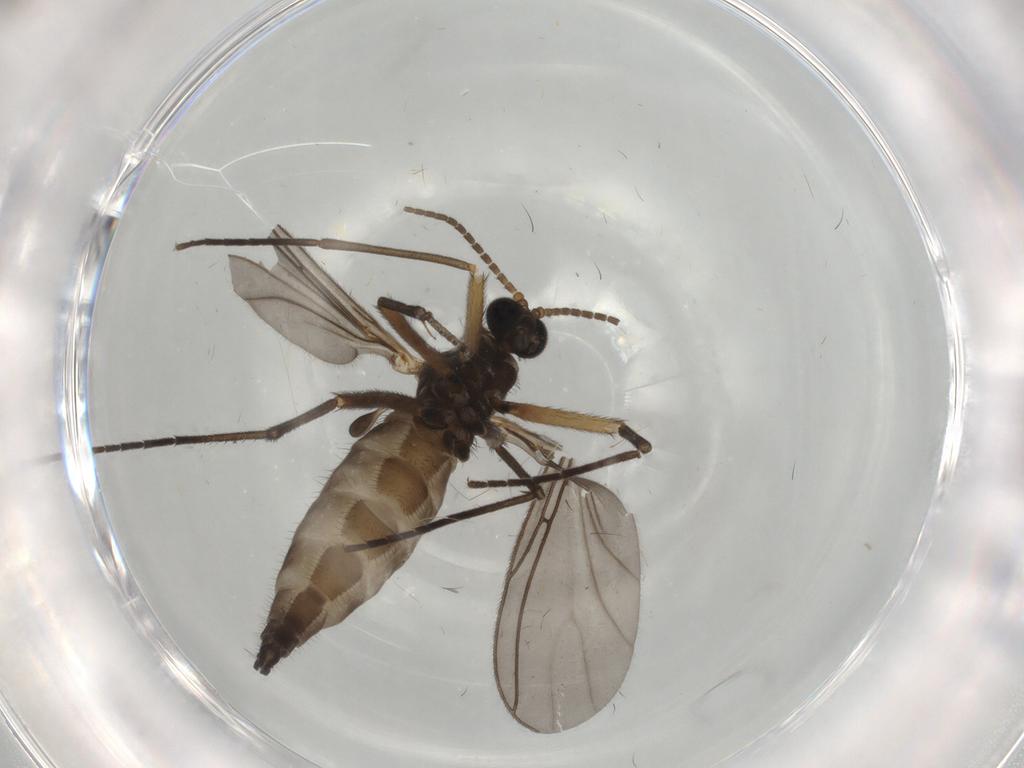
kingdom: Animalia
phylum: Arthropoda
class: Insecta
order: Diptera
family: Sciaridae
